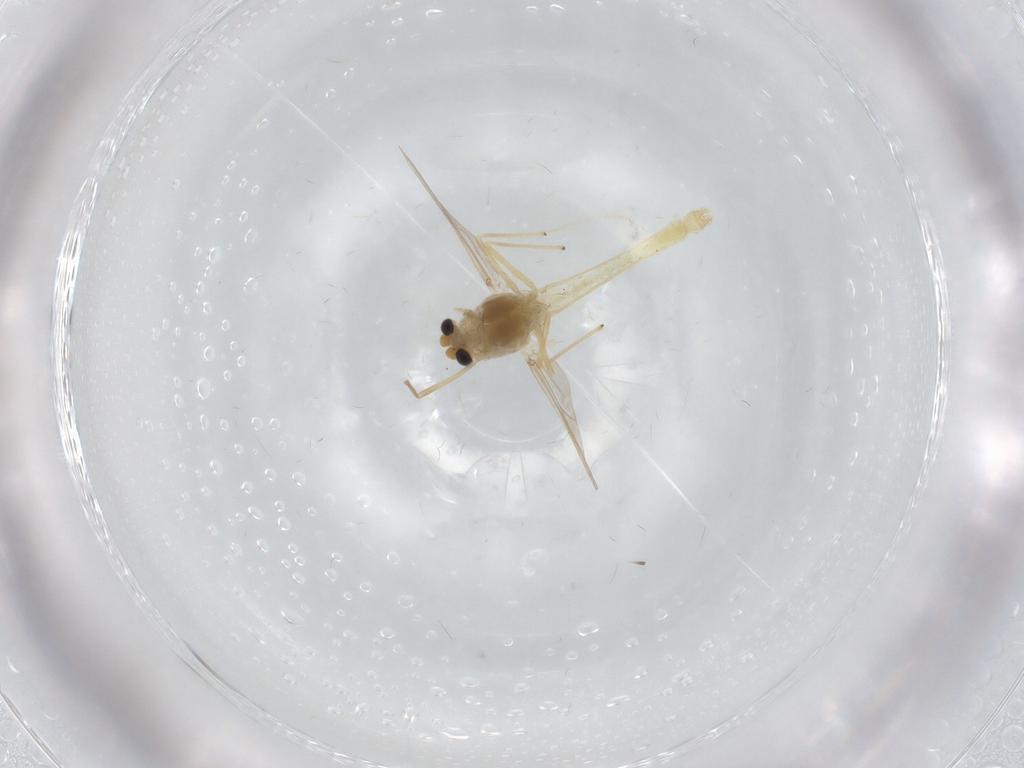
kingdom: Animalia
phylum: Arthropoda
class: Insecta
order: Diptera
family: Chironomidae
